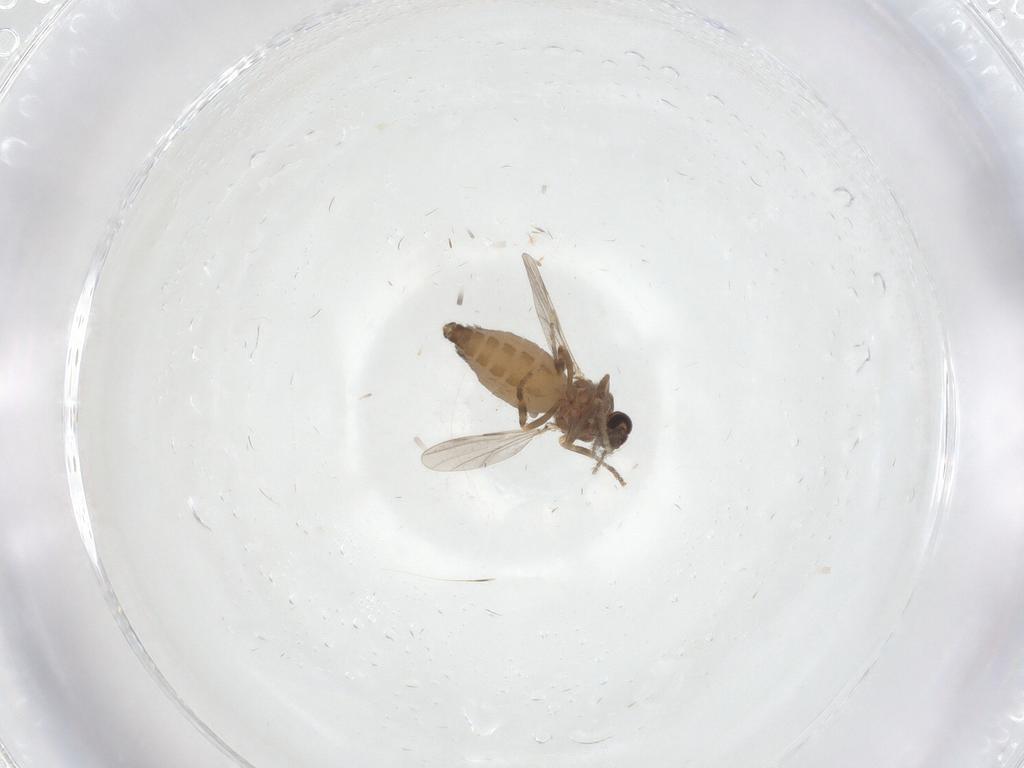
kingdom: Animalia
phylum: Arthropoda
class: Insecta
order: Diptera
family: Ceratopogonidae
